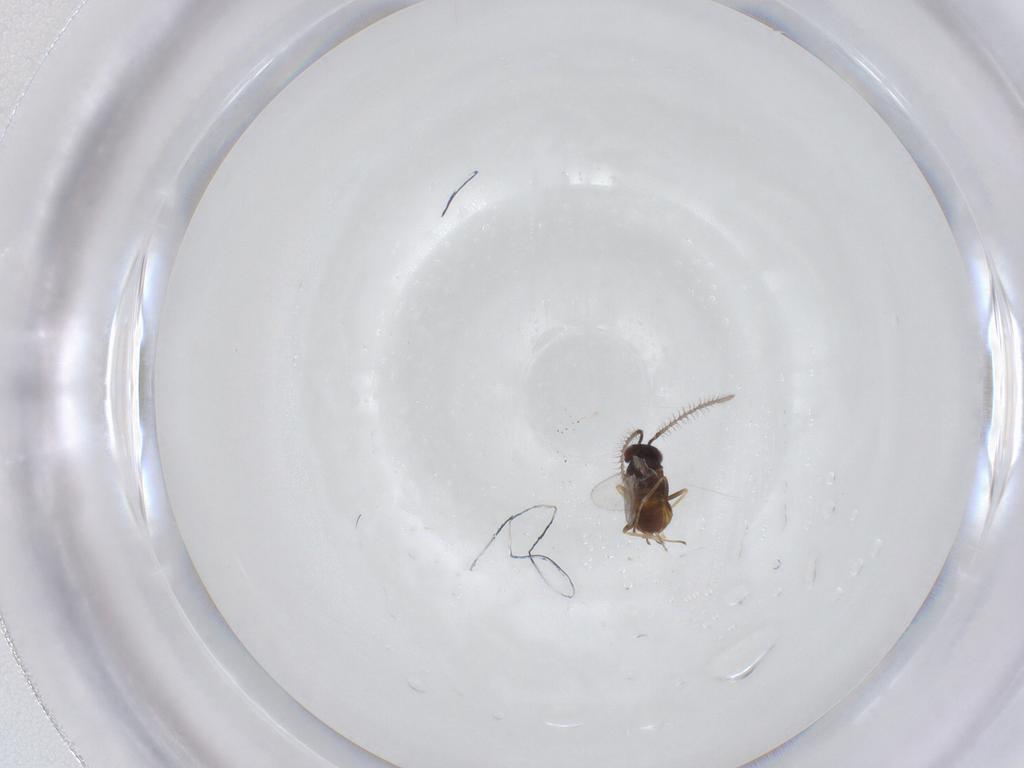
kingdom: Animalia
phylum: Arthropoda
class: Insecta
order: Hymenoptera
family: Encyrtidae
